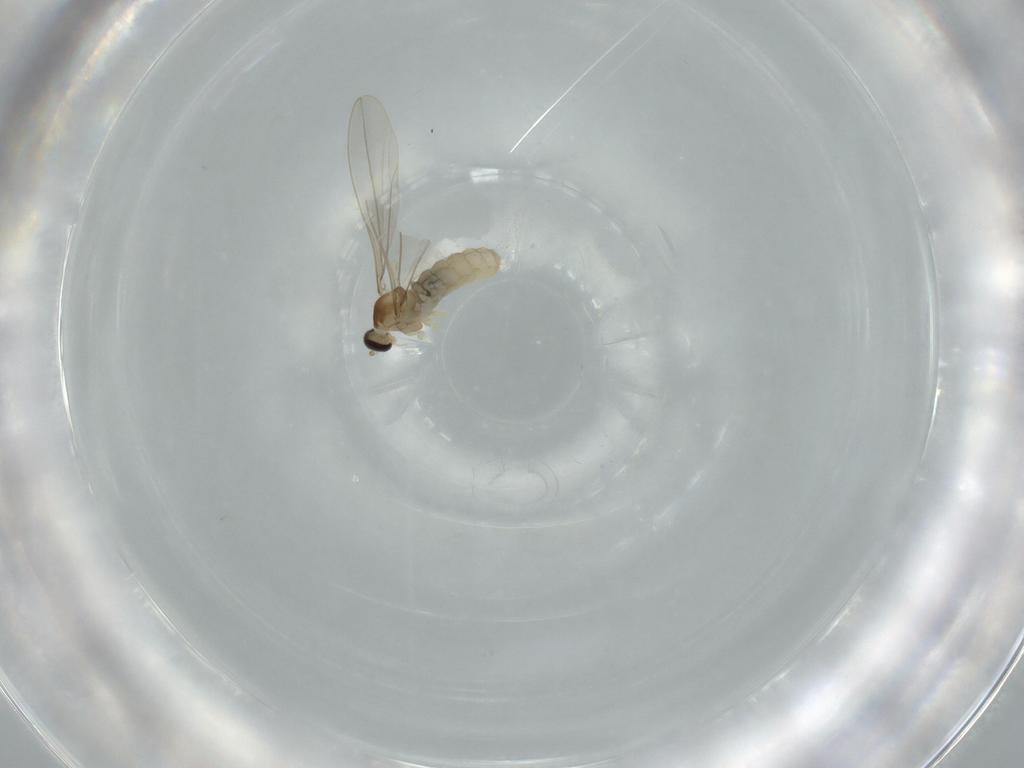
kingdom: Animalia
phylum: Arthropoda
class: Insecta
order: Diptera
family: Cecidomyiidae
